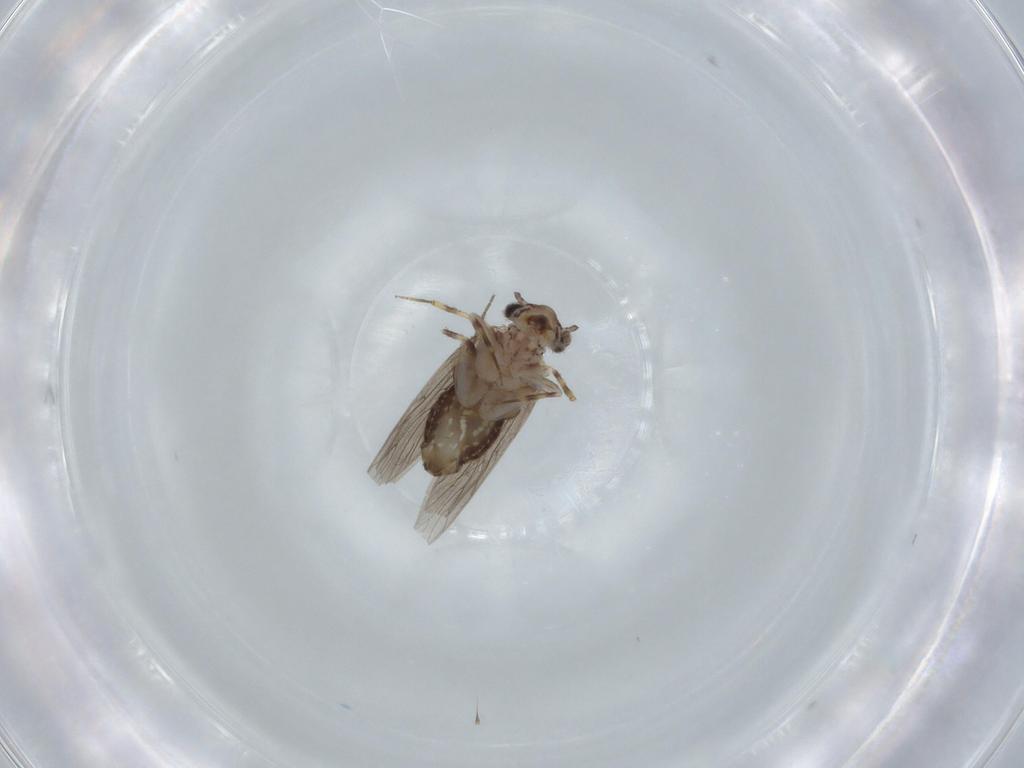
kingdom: Animalia
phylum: Arthropoda
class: Insecta
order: Psocodea
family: Lepidopsocidae
